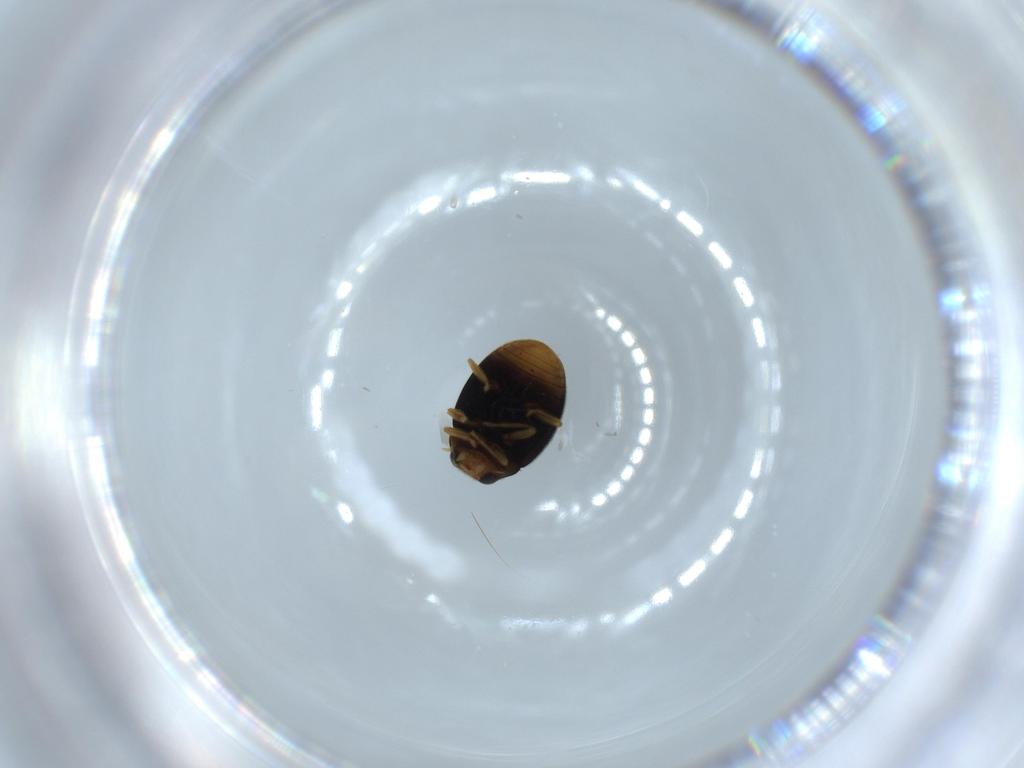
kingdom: Animalia
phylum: Arthropoda
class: Insecta
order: Coleoptera
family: Coccinellidae
